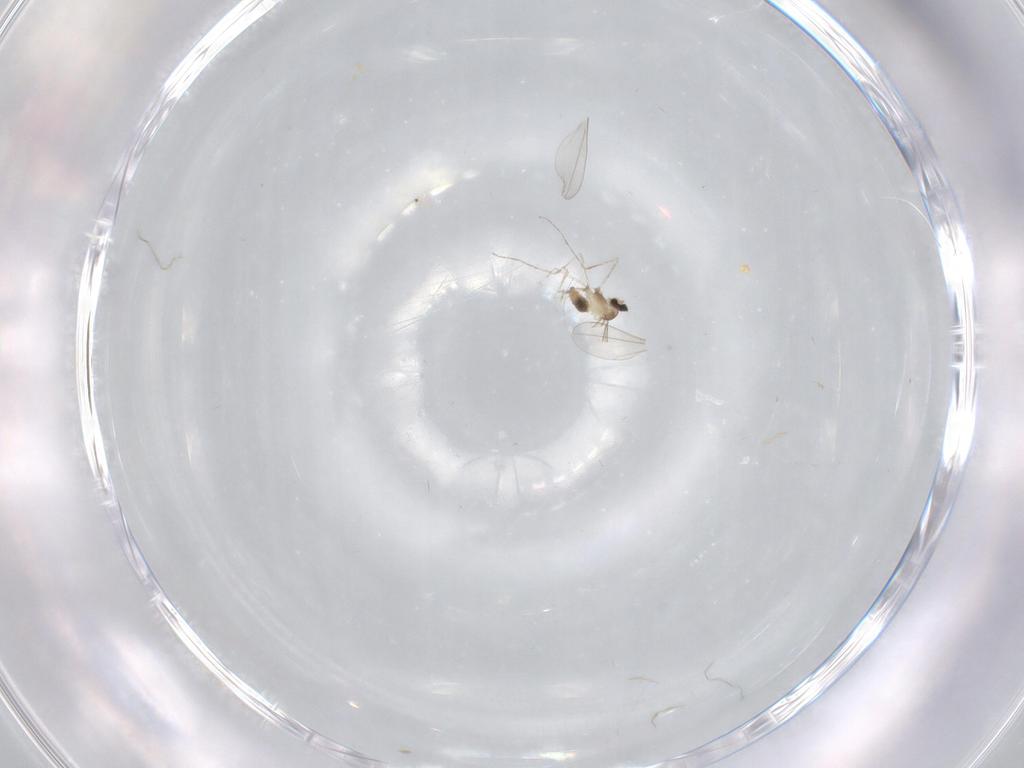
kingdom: Animalia
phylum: Arthropoda
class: Insecta
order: Diptera
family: Cecidomyiidae
